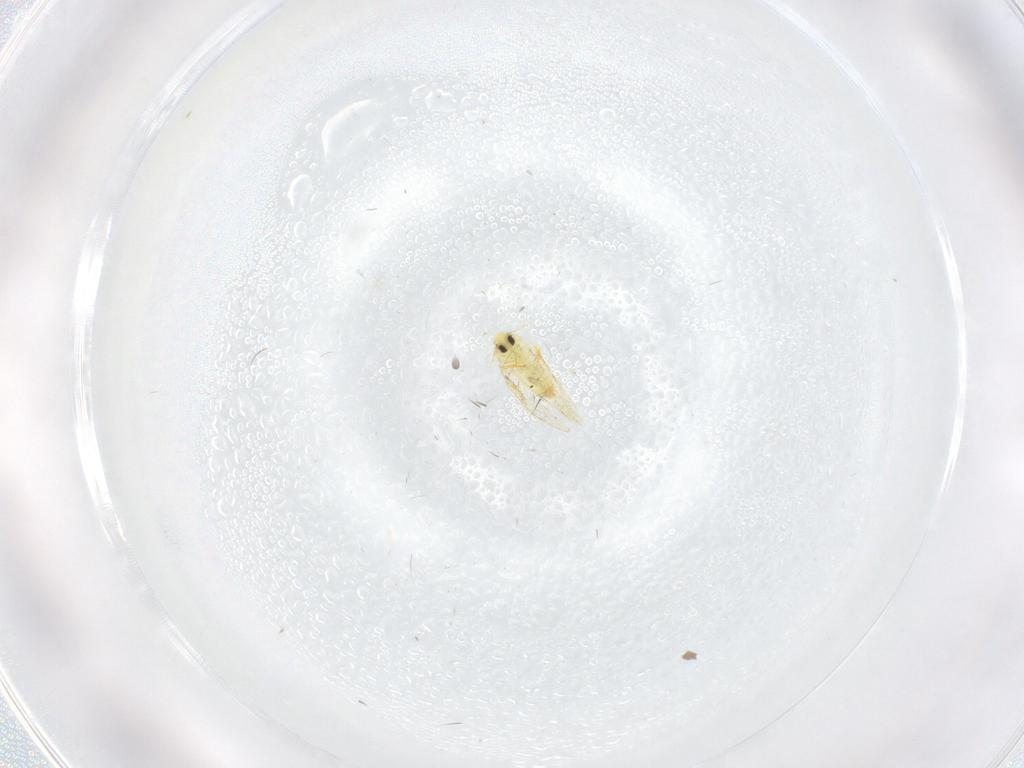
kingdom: Animalia
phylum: Arthropoda
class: Insecta
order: Hemiptera
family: Aleyrodidae
